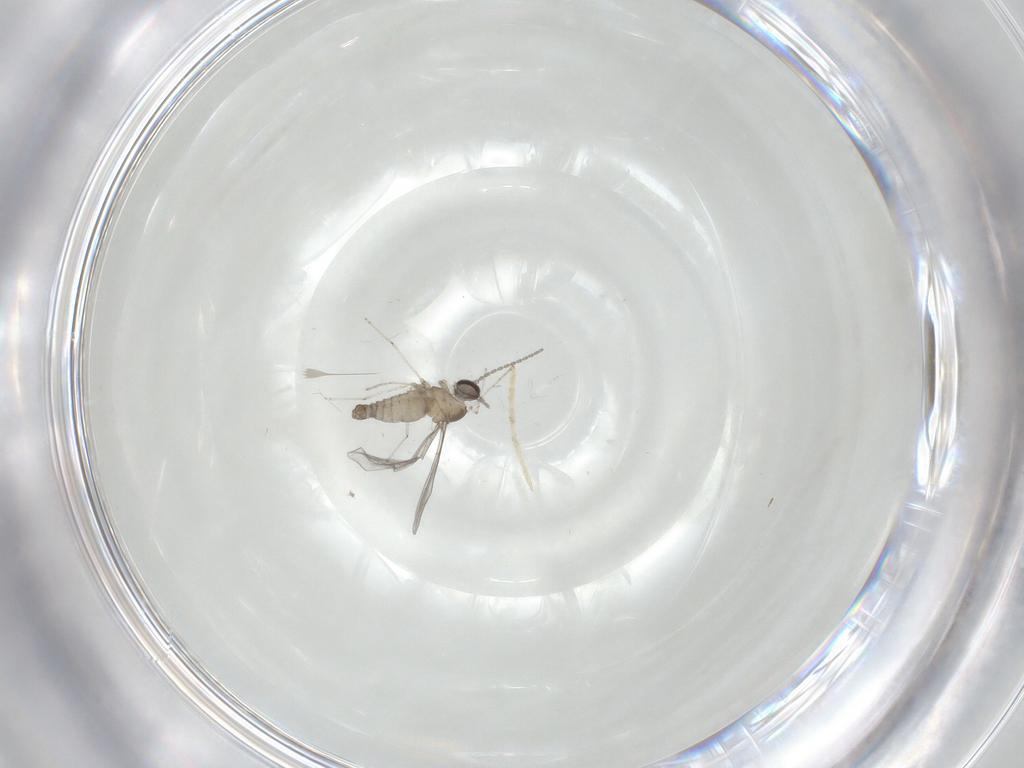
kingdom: Animalia
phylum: Arthropoda
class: Insecta
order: Diptera
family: Cecidomyiidae
